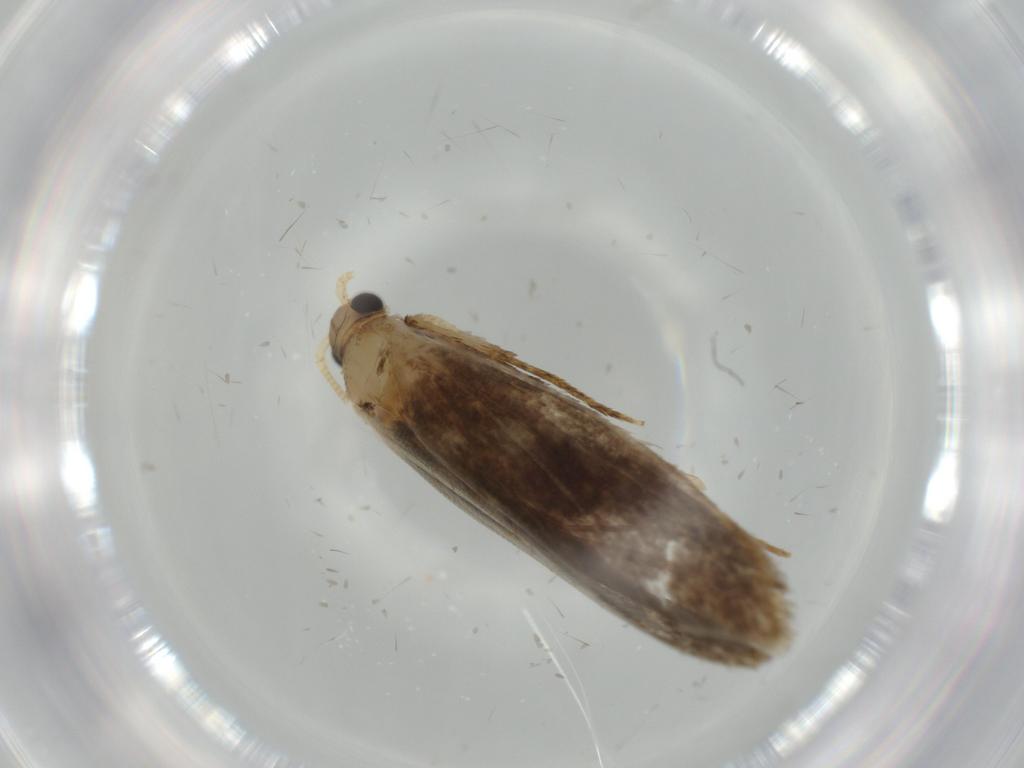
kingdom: Animalia
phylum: Arthropoda
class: Insecta
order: Lepidoptera
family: Tineidae
